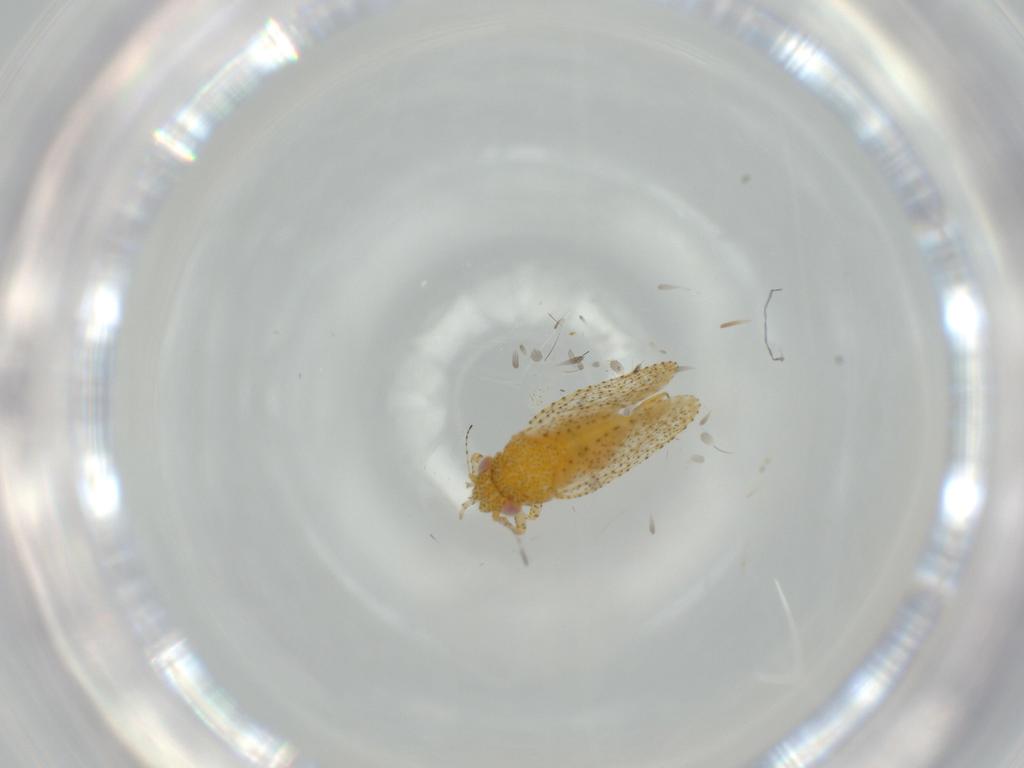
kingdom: Animalia
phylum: Arthropoda
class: Insecta
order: Hemiptera
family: Psyllidae
